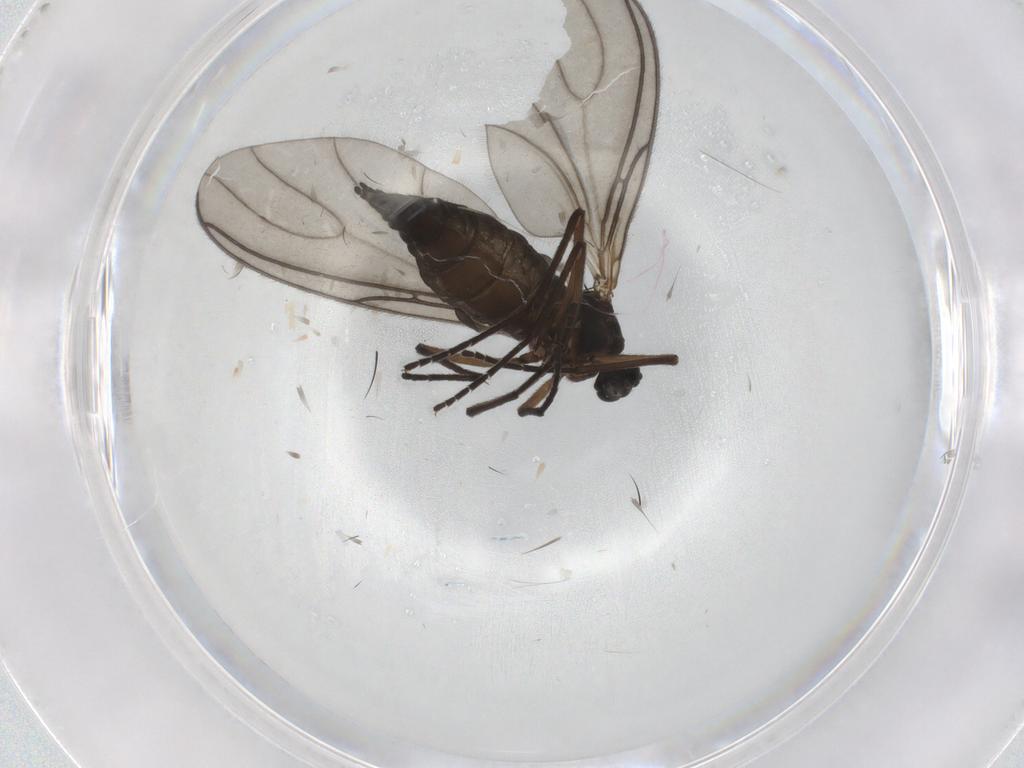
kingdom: Animalia
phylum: Arthropoda
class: Insecta
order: Diptera
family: Sciaridae
